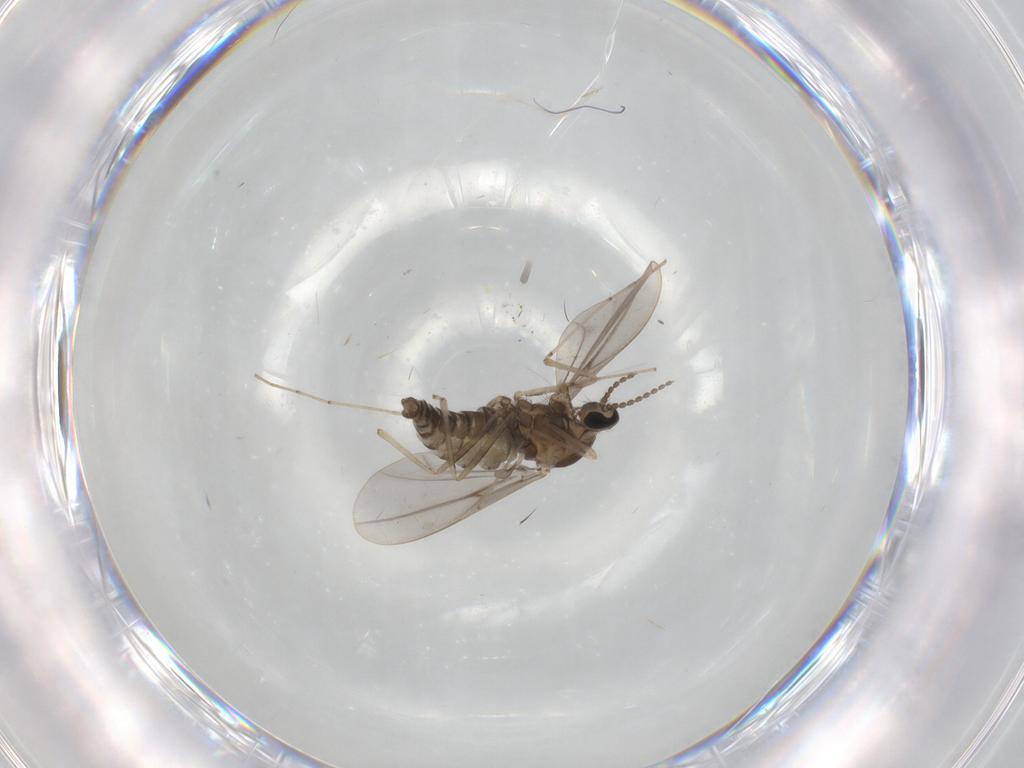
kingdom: Animalia
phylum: Arthropoda
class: Insecta
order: Diptera
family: Cecidomyiidae
